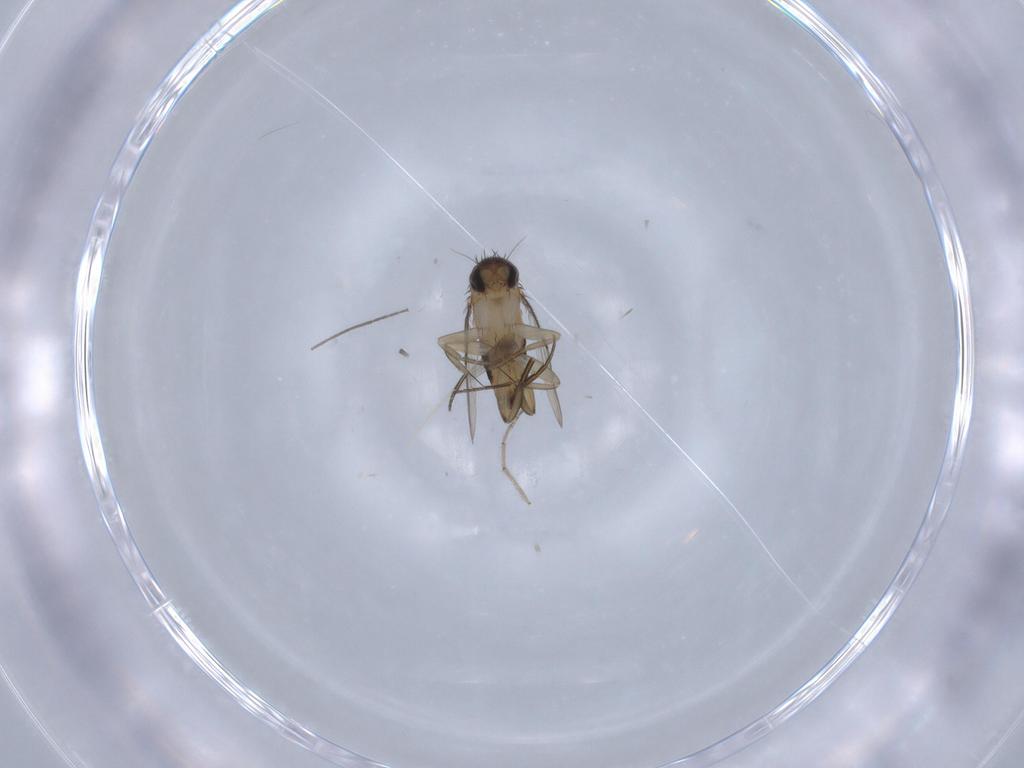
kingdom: Animalia
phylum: Arthropoda
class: Insecta
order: Diptera
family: Phoridae
